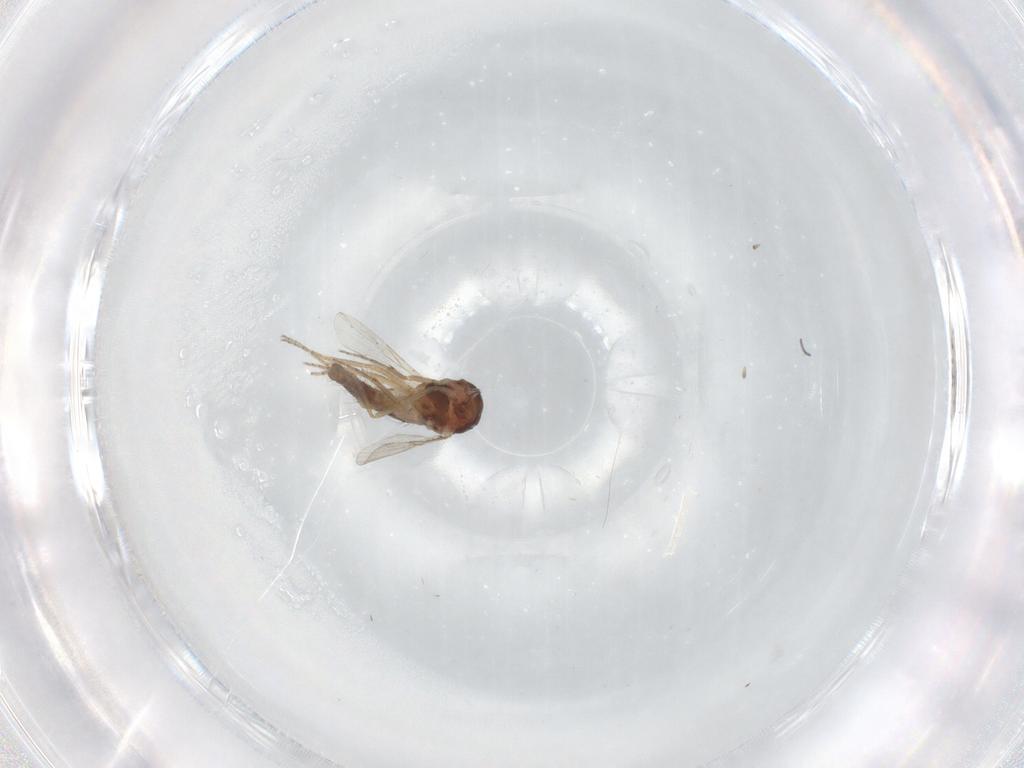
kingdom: Animalia
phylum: Arthropoda
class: Insecta
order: Diptera
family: Ceratopogonidae
